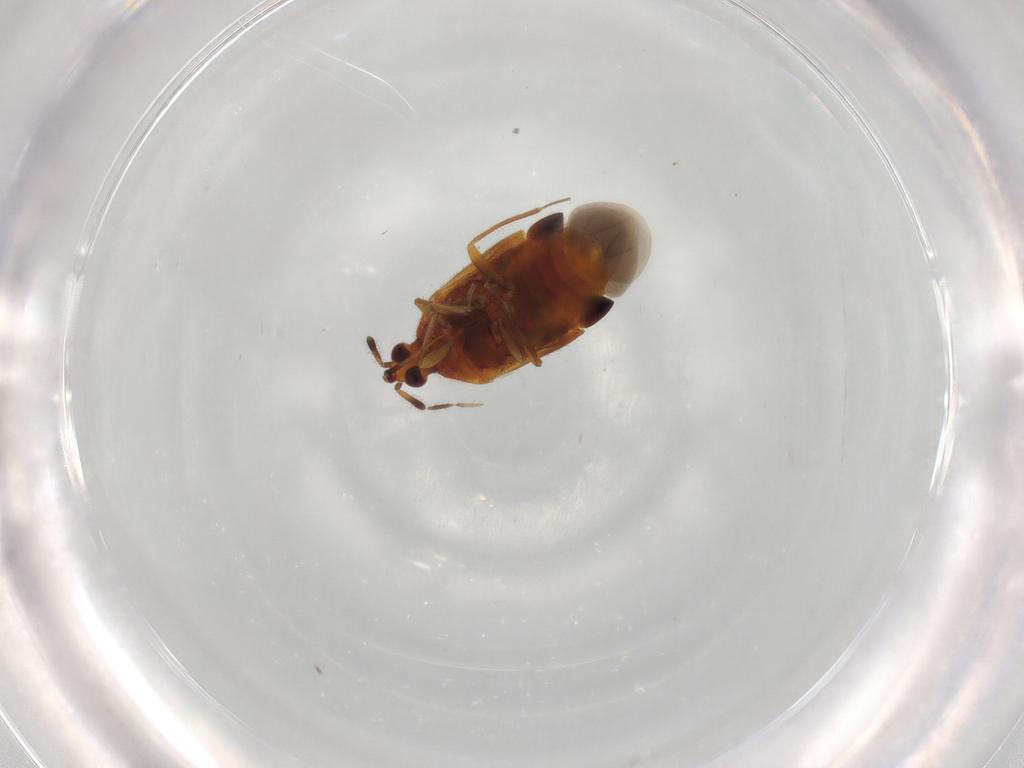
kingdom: Animalia
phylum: Arthropoda
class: Insecta
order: Hemiptera
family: Anthocoridae
